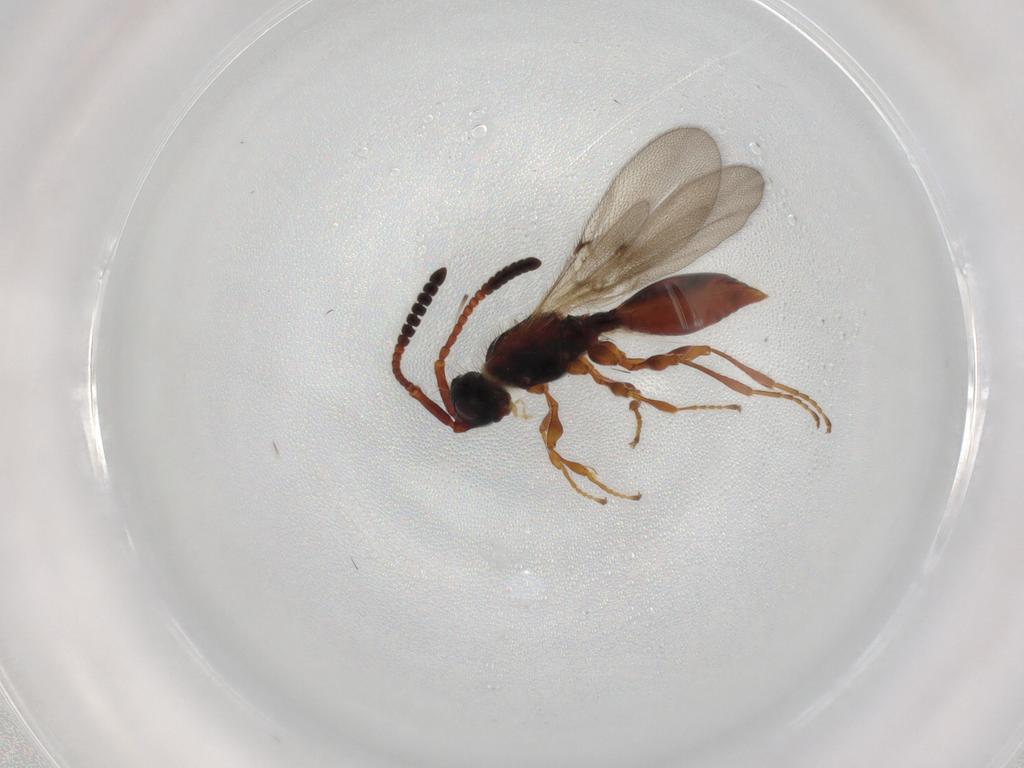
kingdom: Animalia
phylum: Arthropoda
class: Insecta
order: Hymenoptera
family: Diapriidae
